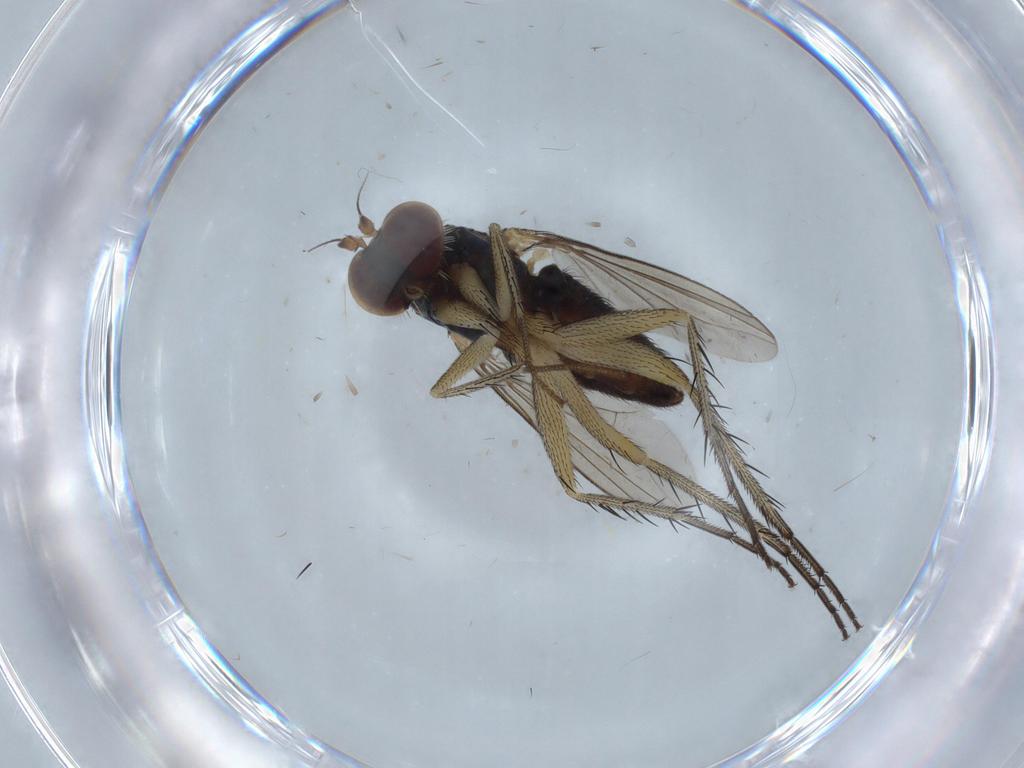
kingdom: Animalia
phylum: Arthropoda
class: Insecta
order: Diptera
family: Dolichopodidae
